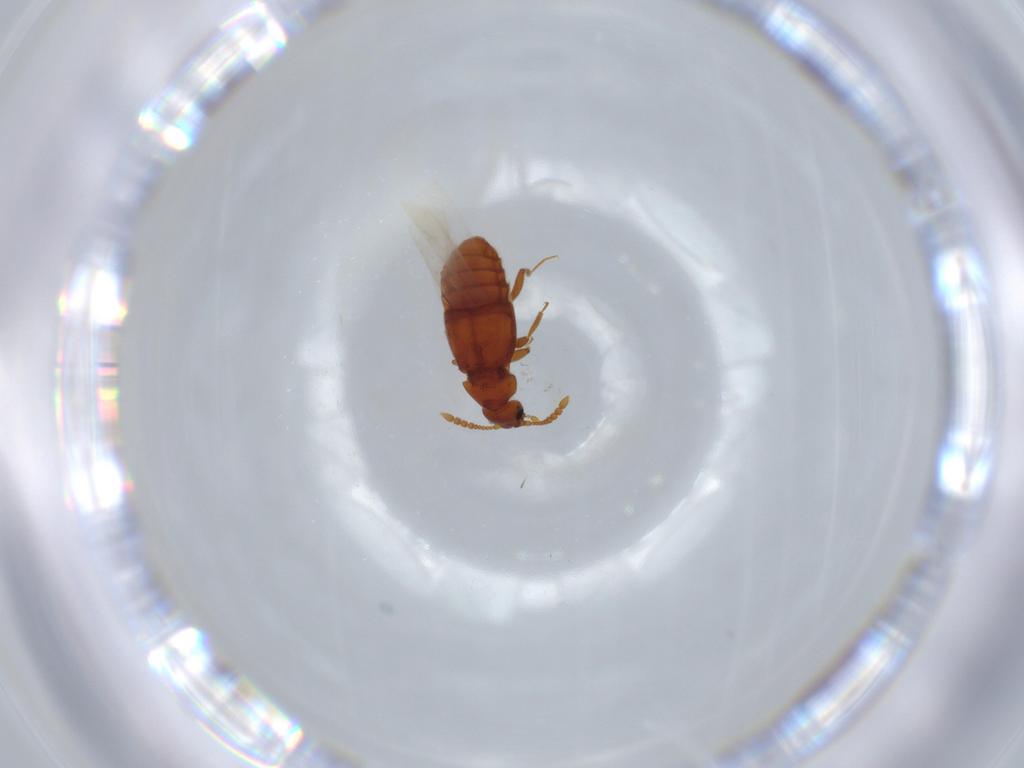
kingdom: Animalia
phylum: Arthropoda
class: Insecta
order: Coleoptera
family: Staphylinidae
